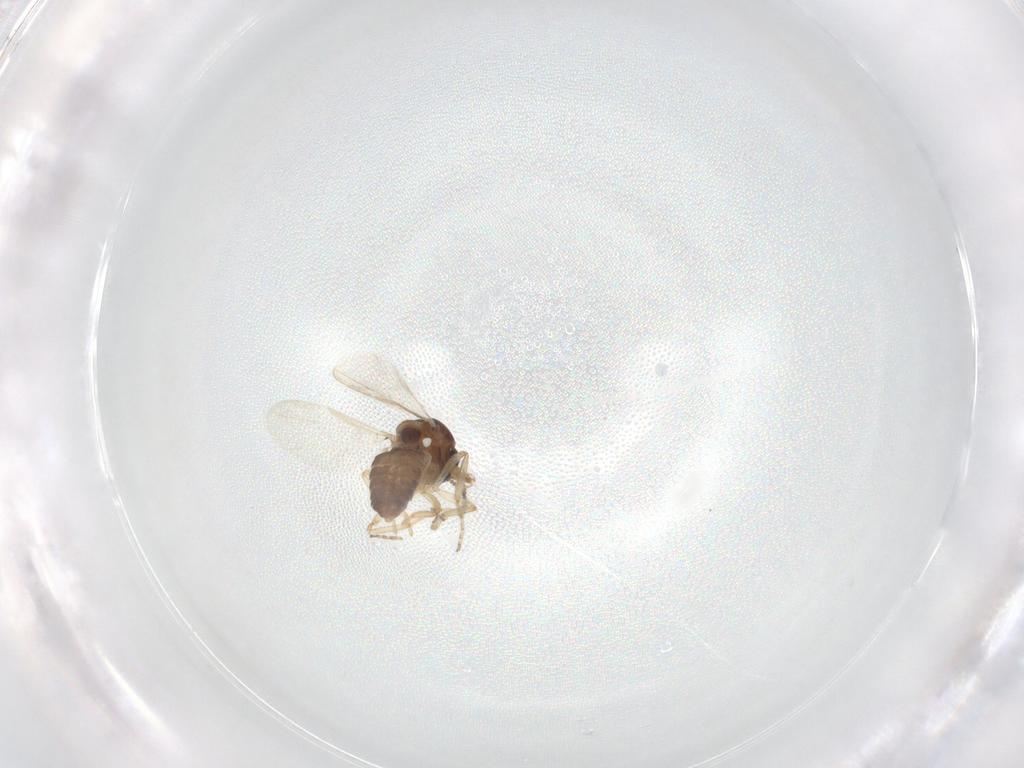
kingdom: Animalia
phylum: Arthropoda
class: Insecta
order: Diptera
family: Ceratopogonidae
